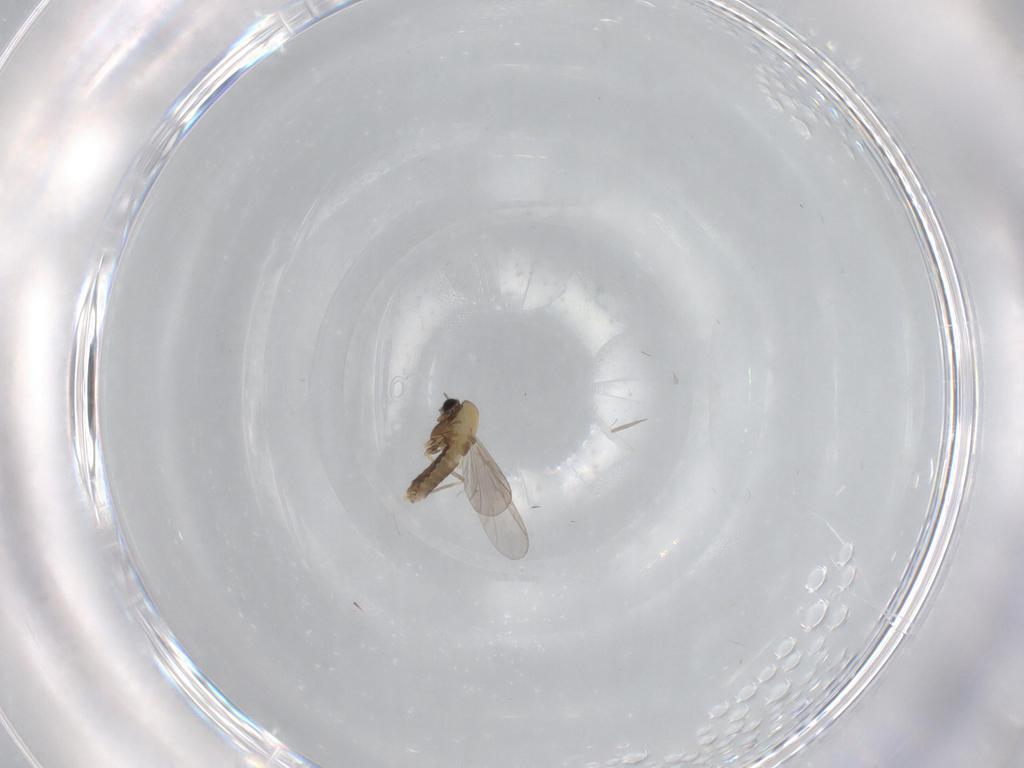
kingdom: Animalia
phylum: Arthropoda
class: Insecta
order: Diptera
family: Chironomidae
